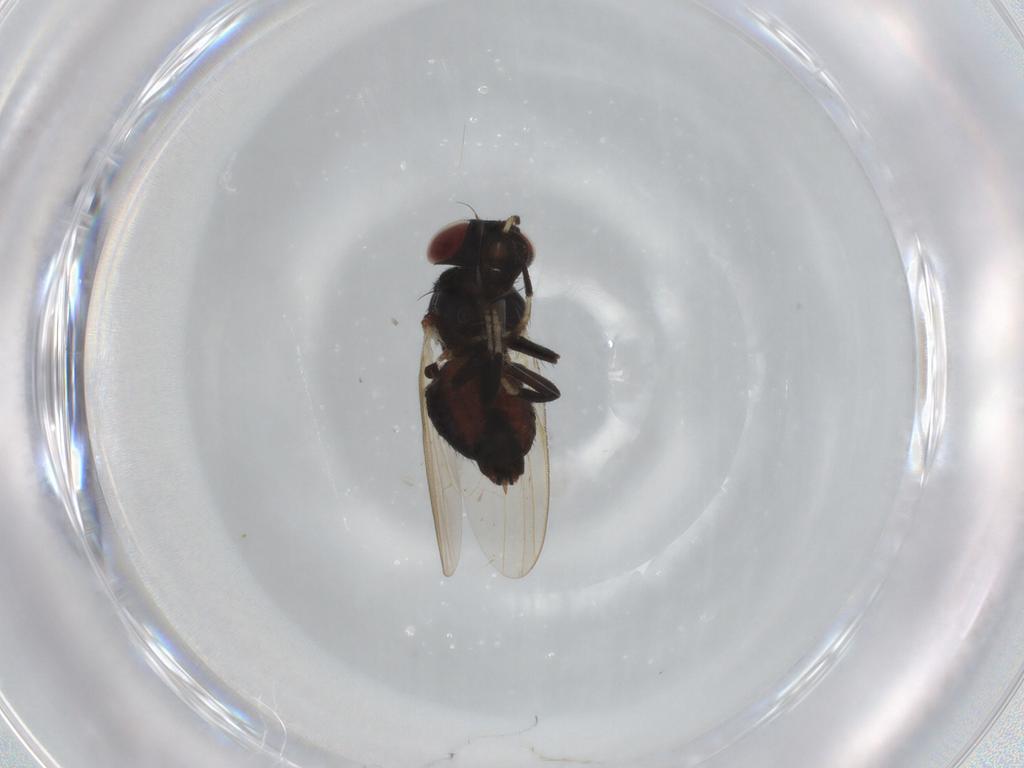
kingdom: Animalia
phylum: Arthropoda
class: Insecta
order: Diptera
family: Lonchaeidae
